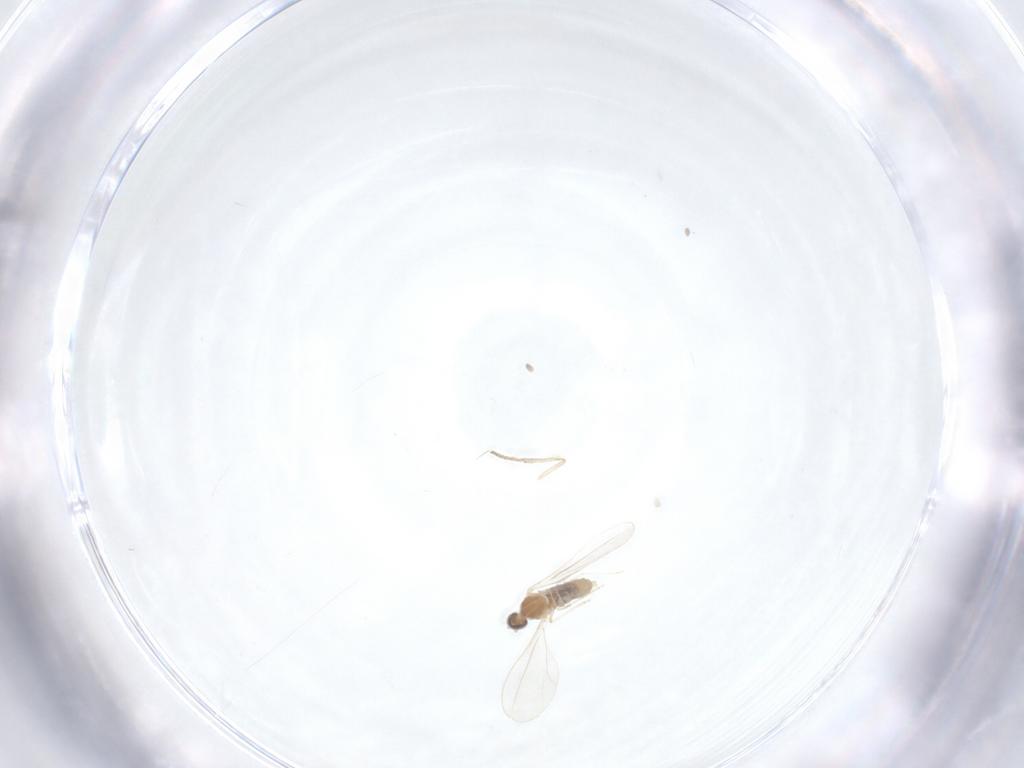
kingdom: Animalia
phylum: Arthropoda
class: Insecta
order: Diptera
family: Cecidomyiidae
